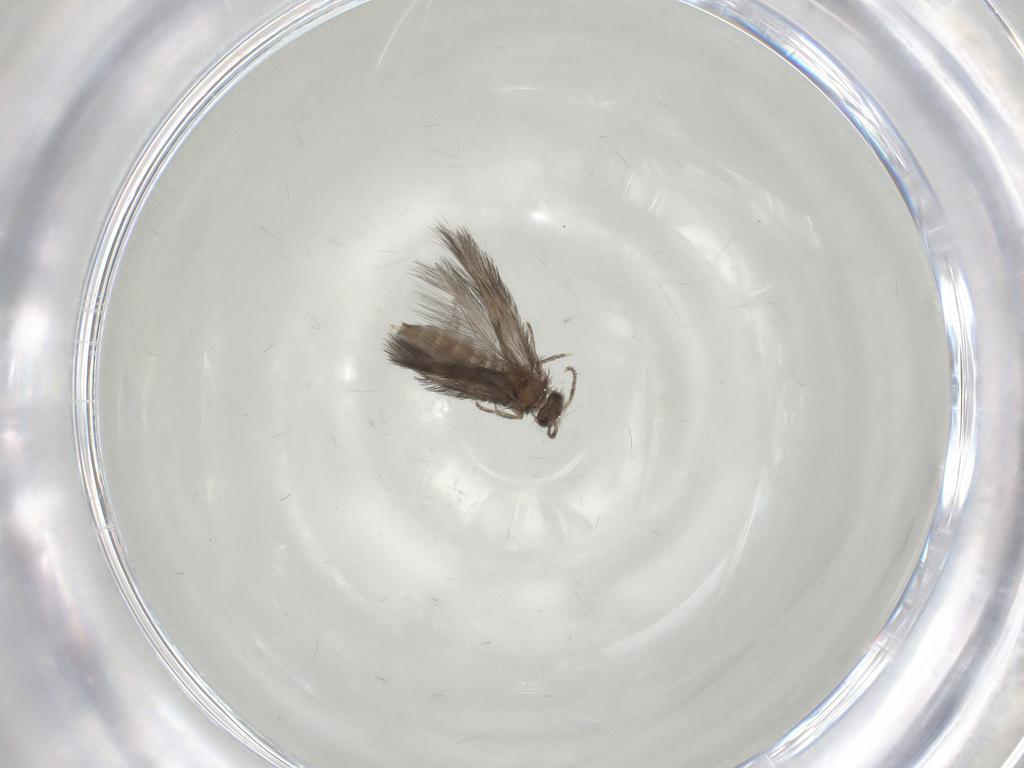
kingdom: Animalia
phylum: Arthropoda
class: Insecta
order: Trichoptera
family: Hydroptilidae
